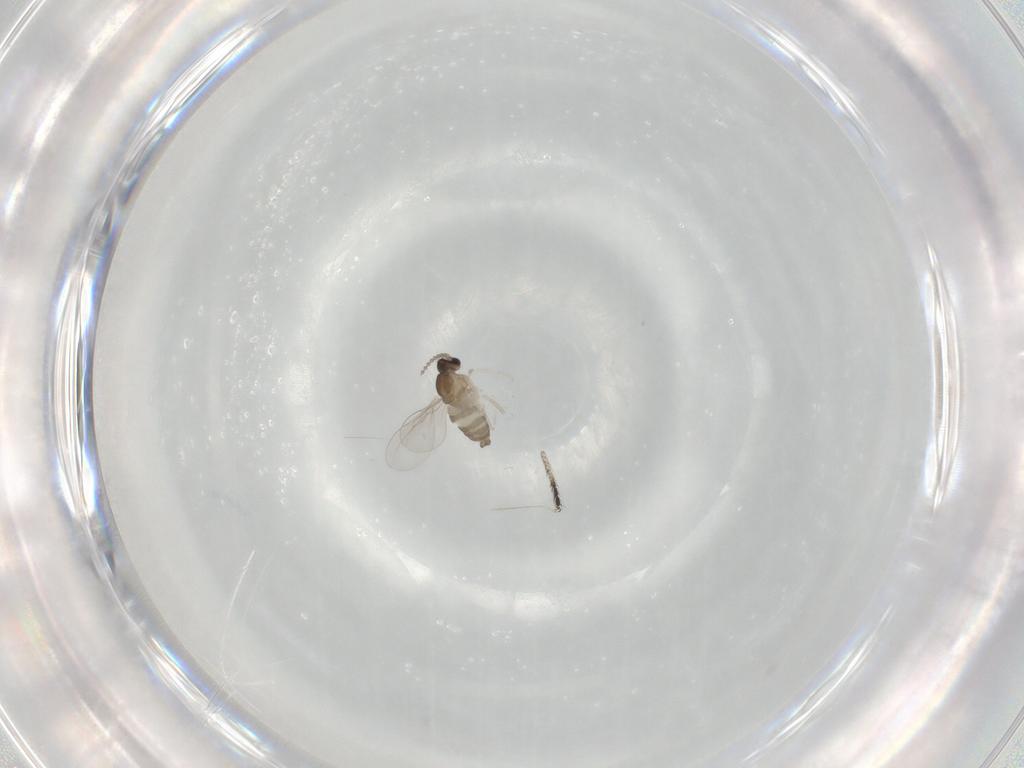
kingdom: Animalia
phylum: Arthropoda
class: Insecta
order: Diptera
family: Cecidomyiidae
